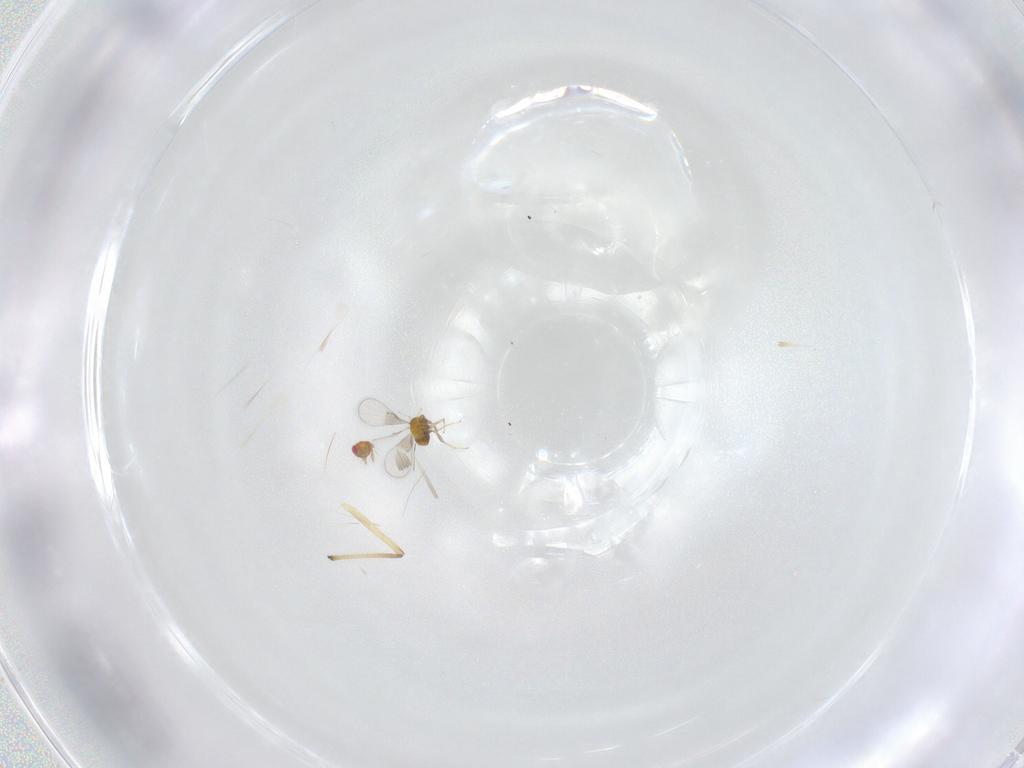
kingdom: Animalia
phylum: Arthropoda
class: Insecta
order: Diptera
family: Chironomidae
